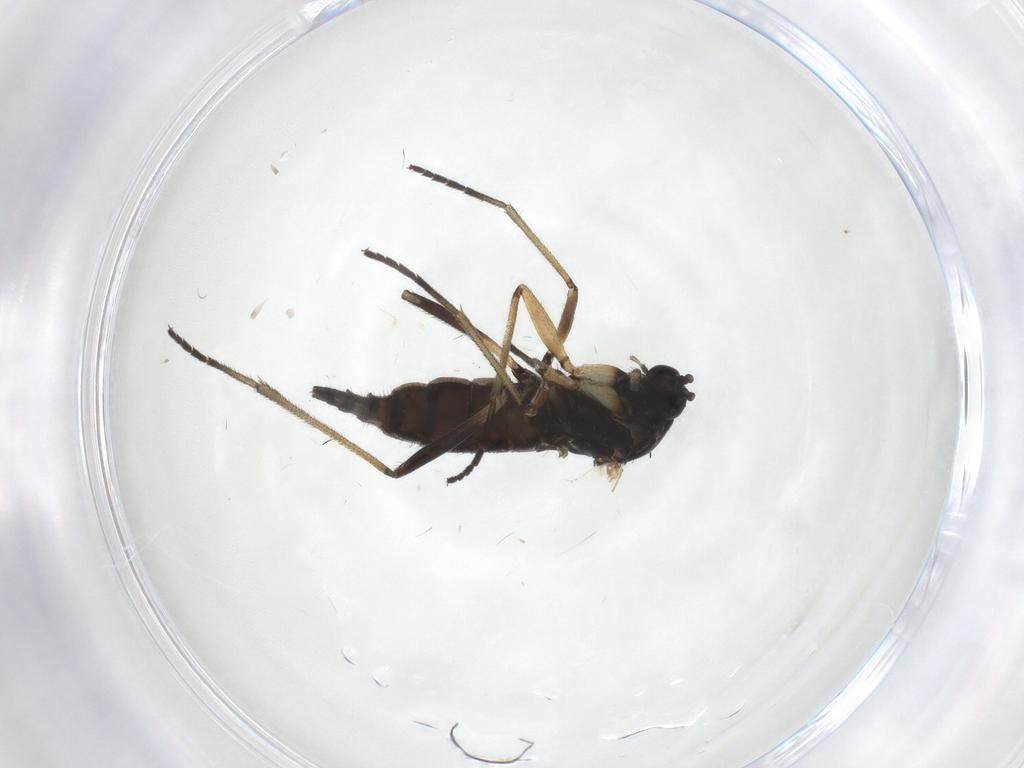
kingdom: Animalia
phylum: Arthropoda
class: Insecta
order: Diptera
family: Sciaridae
